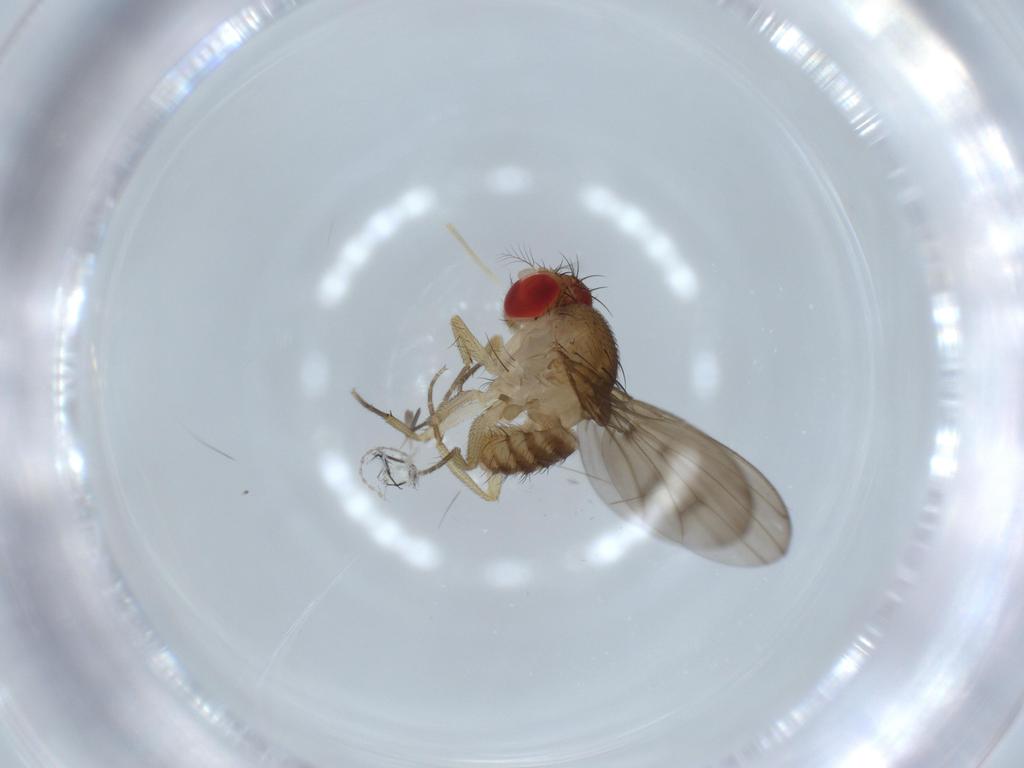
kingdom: Animalia
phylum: Arthropoda
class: Insecta
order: Diptera
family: Drosophilidae
